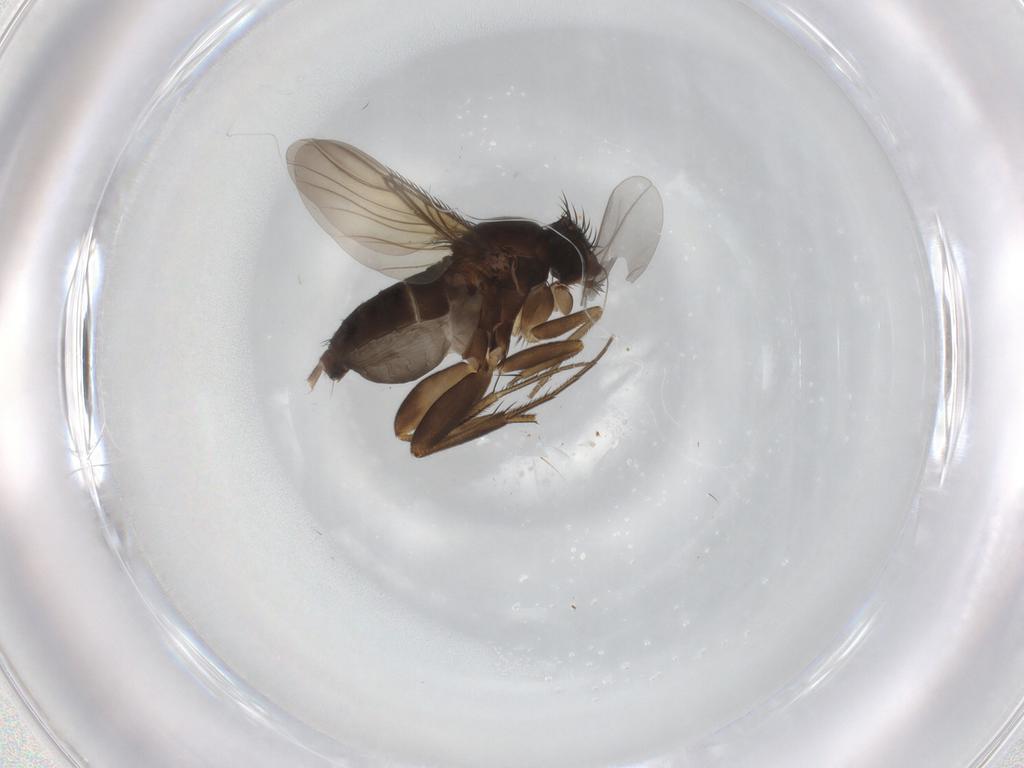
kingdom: Animalia
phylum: Arthropoda
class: Insecta
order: Diptera
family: Phoridae
